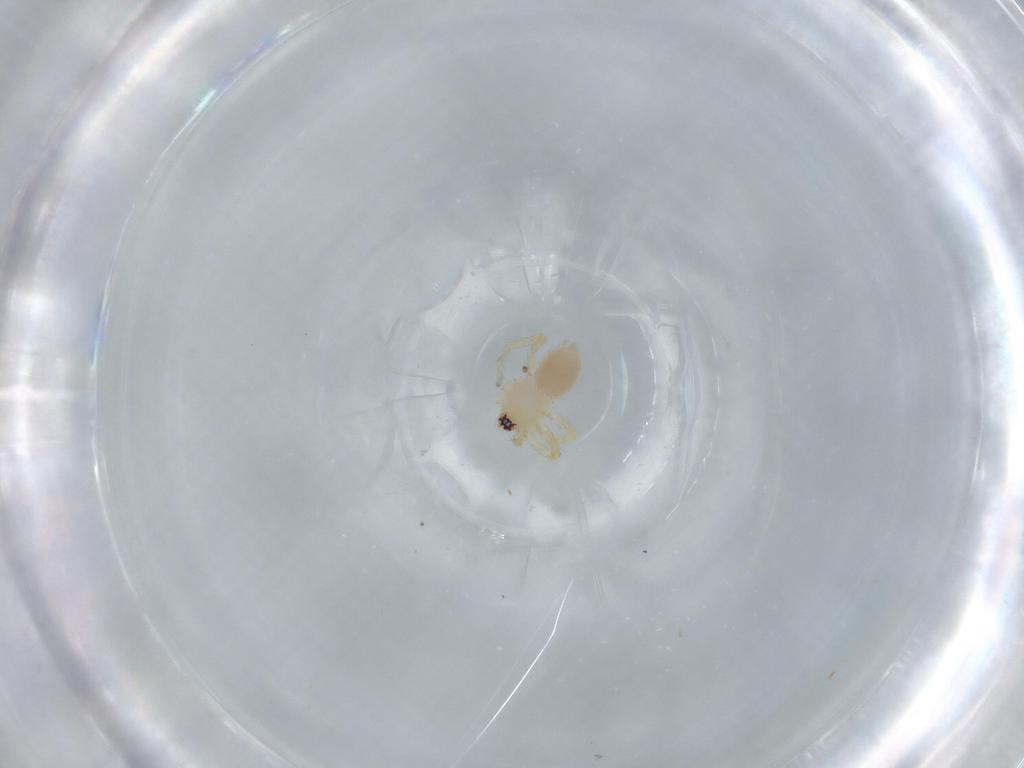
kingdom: Animalia
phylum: Arthropoda
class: Arachnida
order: Araneae
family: Oonopidae
